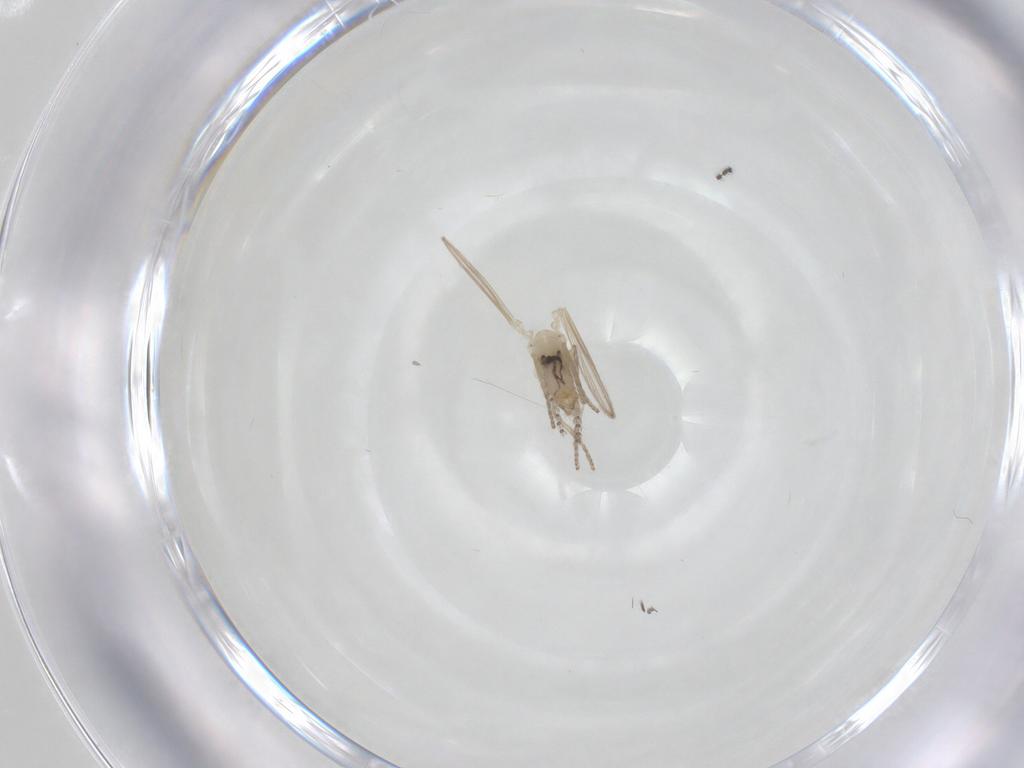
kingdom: Animalia
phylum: Arthropoda
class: Insecta
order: Diptera
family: Psychodidae
